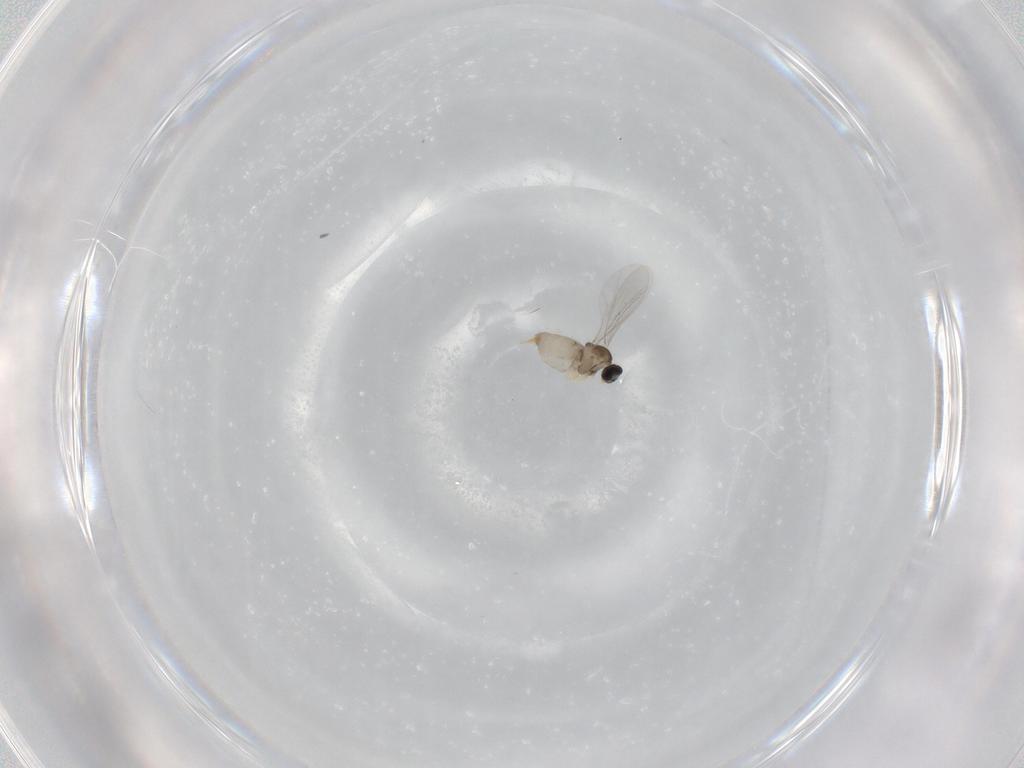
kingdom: Animalia
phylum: Arthropoda
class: Insecta
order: Diptera
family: Cecidomyiidae
